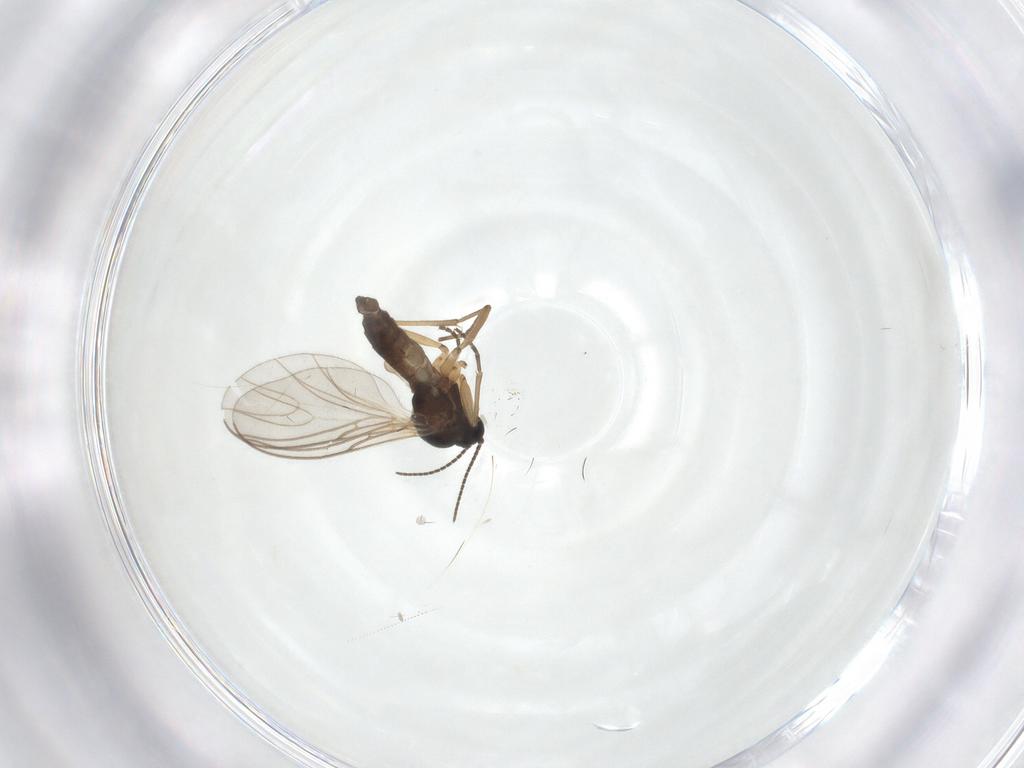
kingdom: Animalia
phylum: Arthropoda
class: Insecta
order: Diptera
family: Sciaridae
